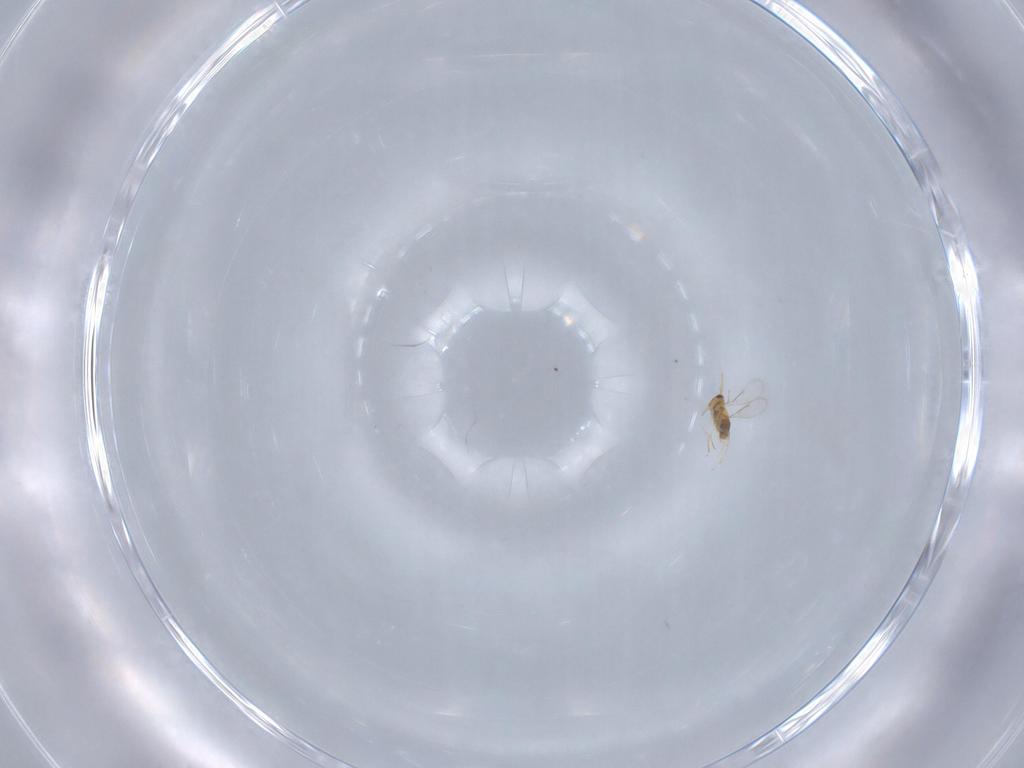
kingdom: Animalia
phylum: Arthropoda
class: Insecta
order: Hymenoptera
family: Aphelinidae
